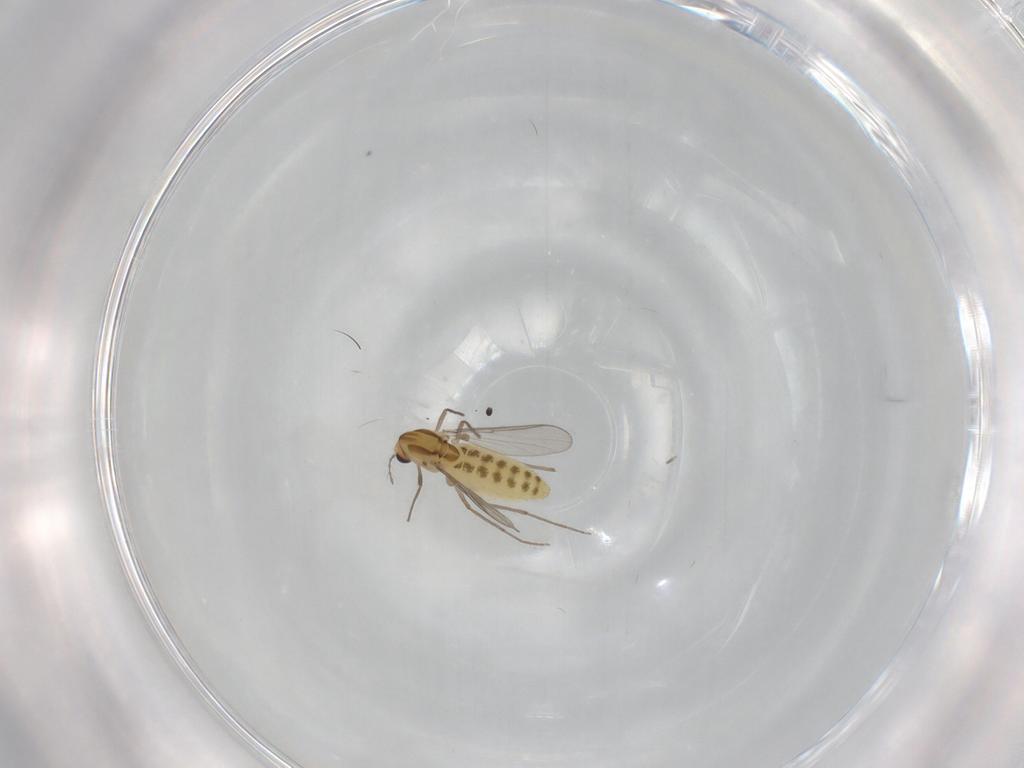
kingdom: Animalia
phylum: Arthropoda
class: Insecta
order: Diptera
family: Chironomidae
